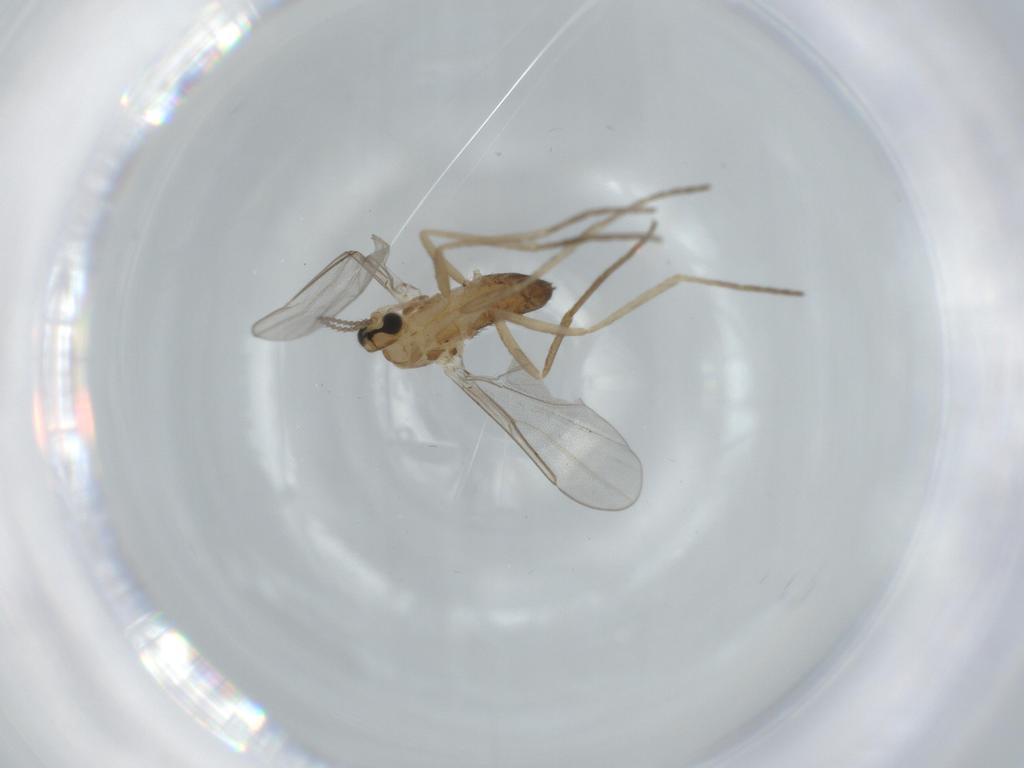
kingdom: Animalia
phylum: Arthropoda
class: Insecta
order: Diptera
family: Cecidomyiidae
